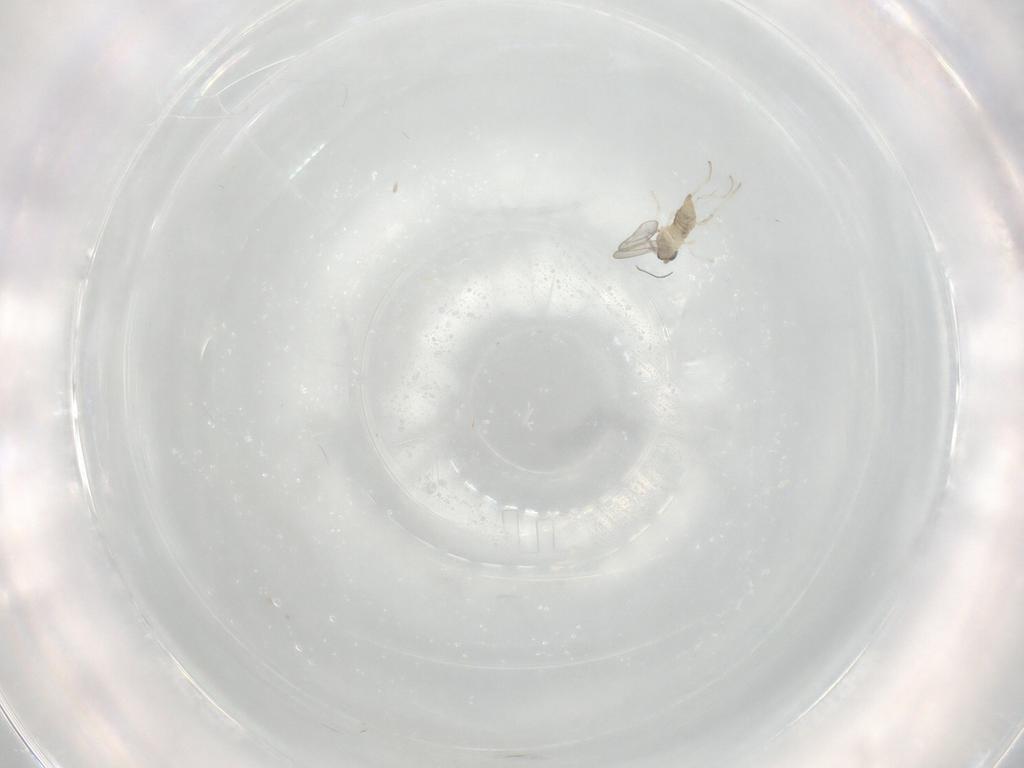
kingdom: Animalia
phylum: Arthropoda
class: Insecta
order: Diptera
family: Cecidomyiidae
